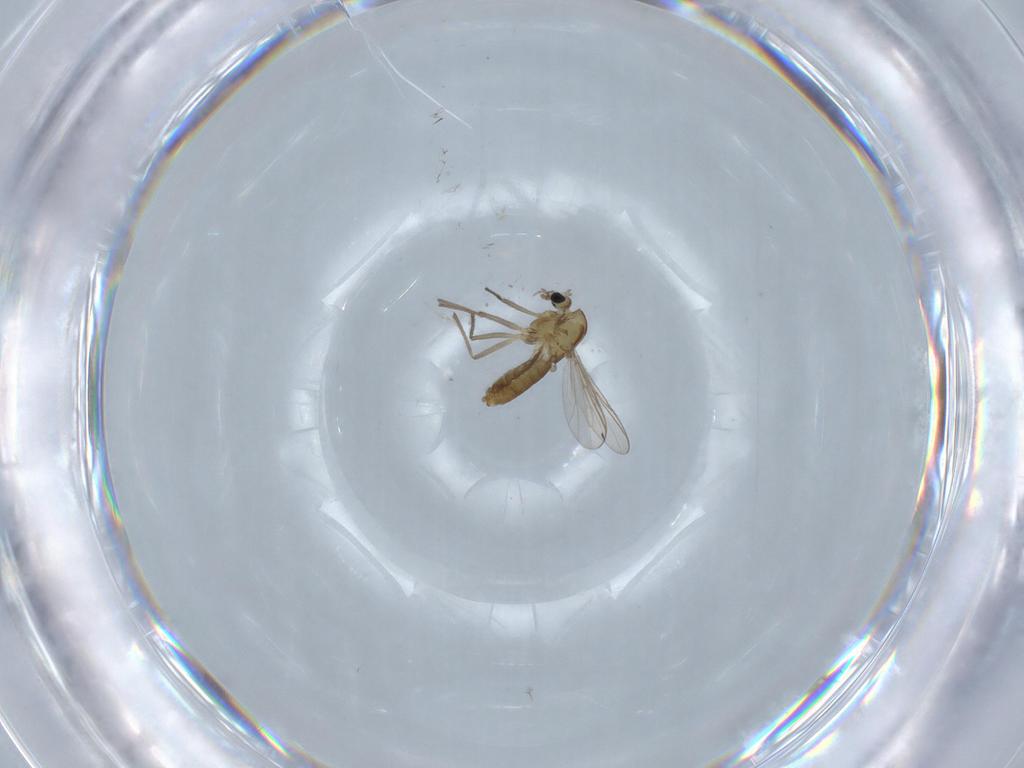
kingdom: Animalia
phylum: Arthropoda
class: Insecta
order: Diptera
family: Chironomidae
